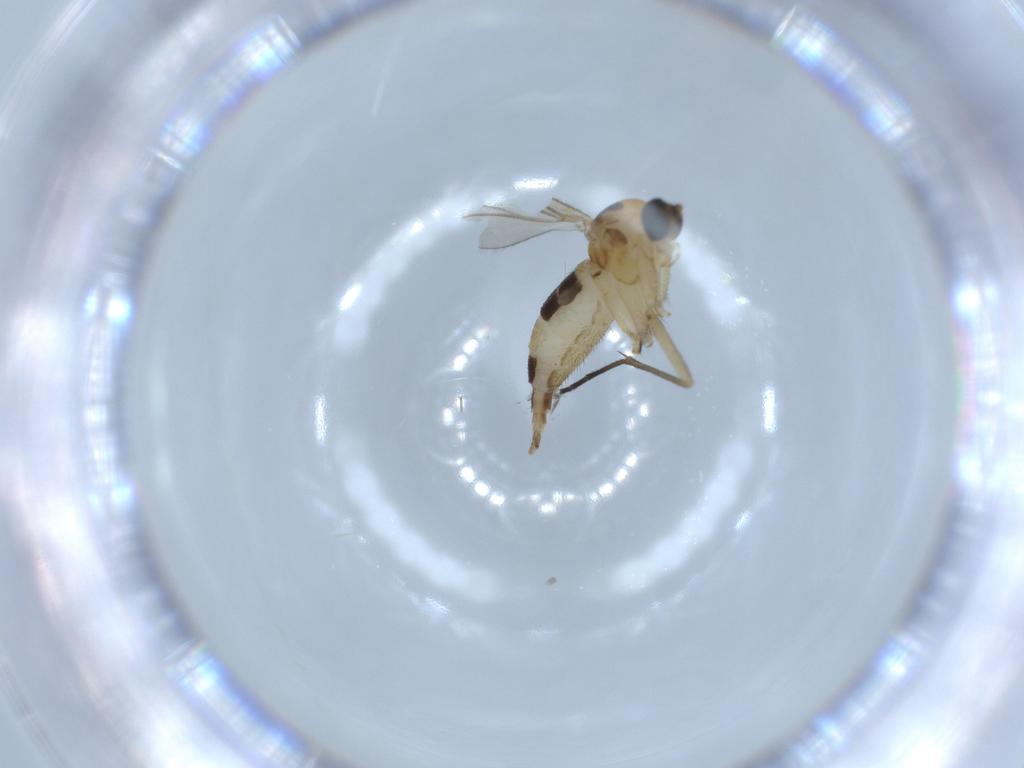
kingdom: Animalia
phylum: Arthropoda
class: Insecta
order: Diptera
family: Sciaridae
